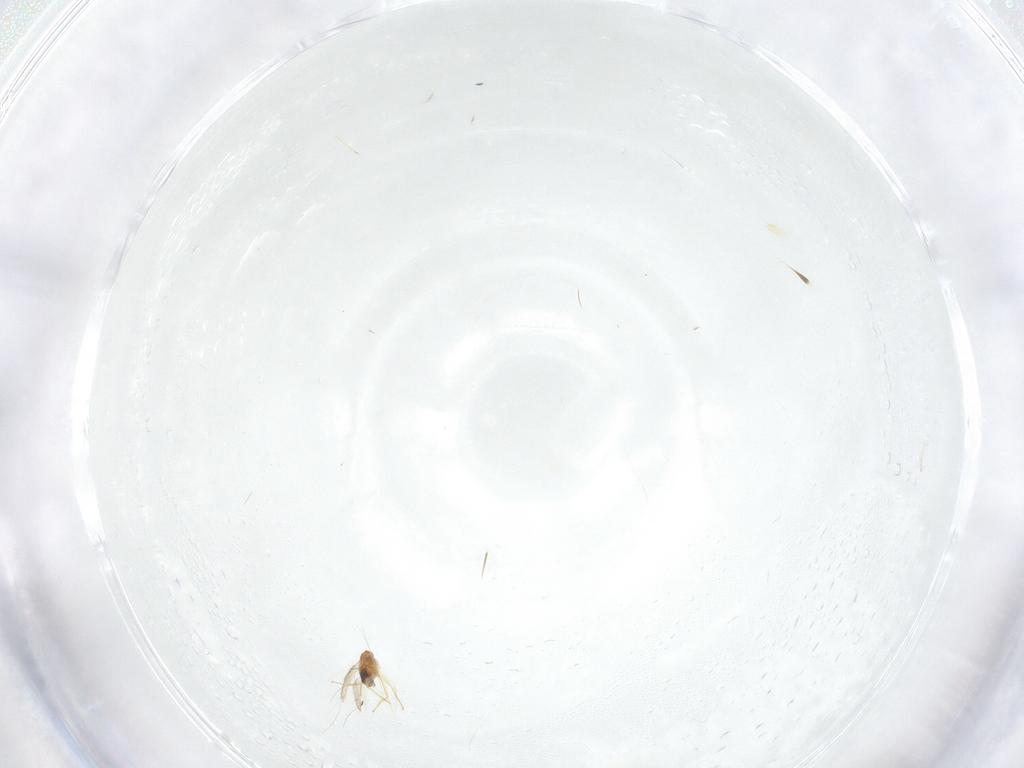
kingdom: Animalia
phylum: Arthropoda
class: Insecta
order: Hymenoptera
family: Aphelinidae
